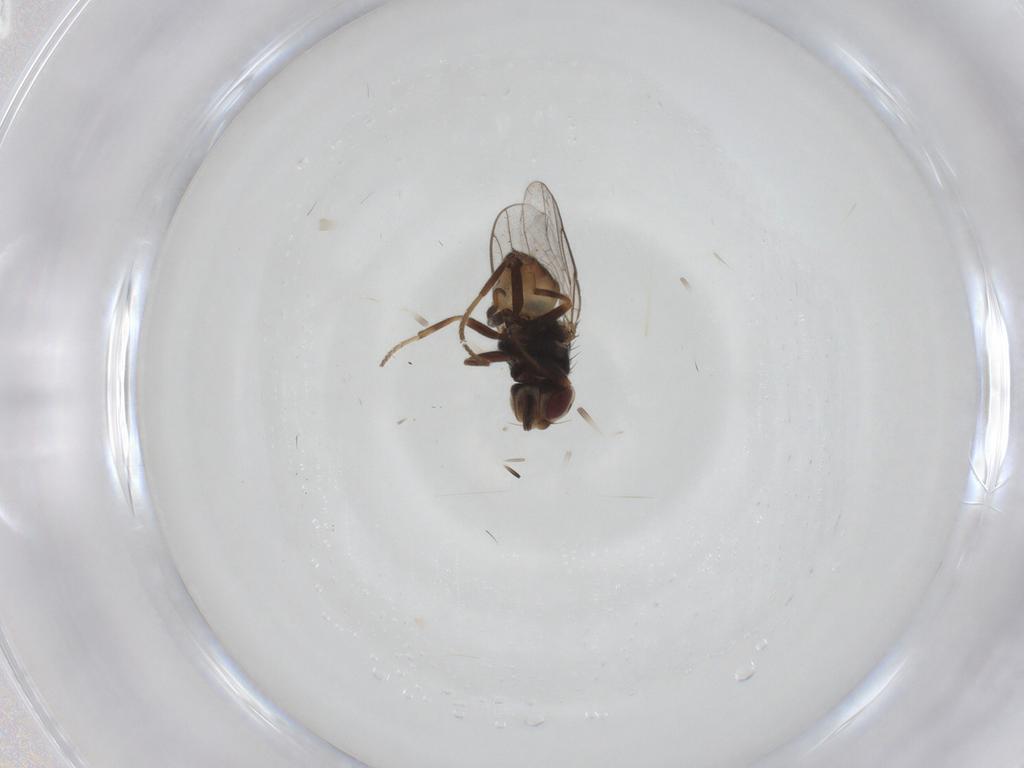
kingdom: Animalia
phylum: Arthropoda
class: Insecta
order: Diptera
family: Chloropidae
